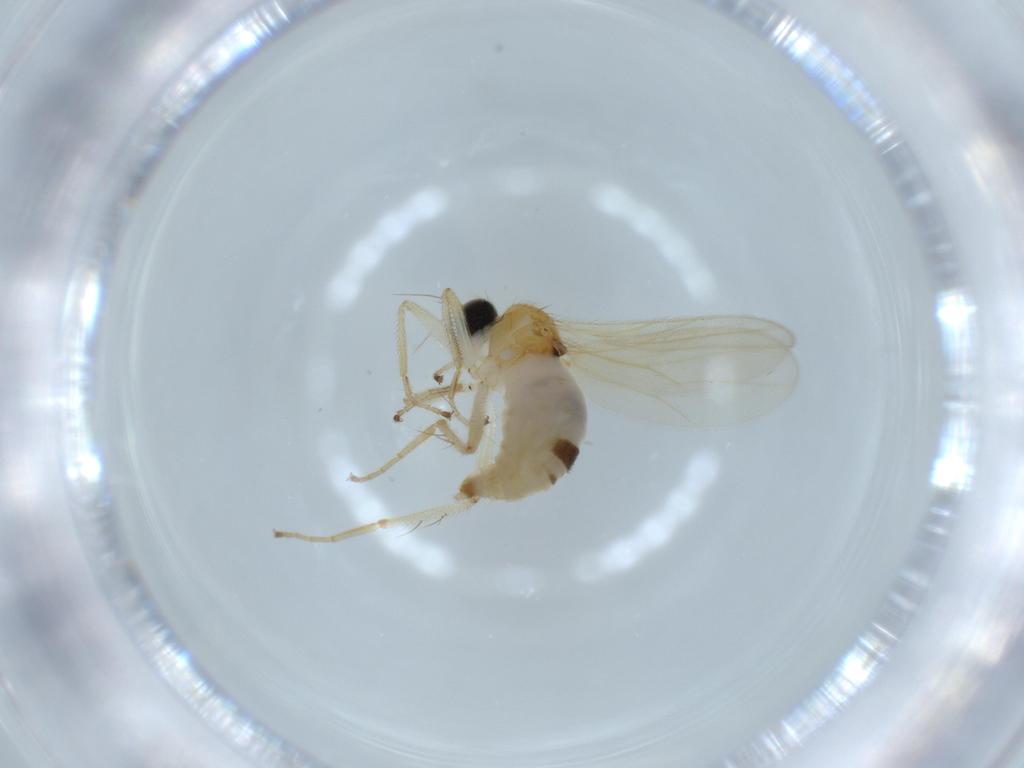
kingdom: Animalia
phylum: Arthropoda
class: Insecta
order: Diptera
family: Hybotidae
